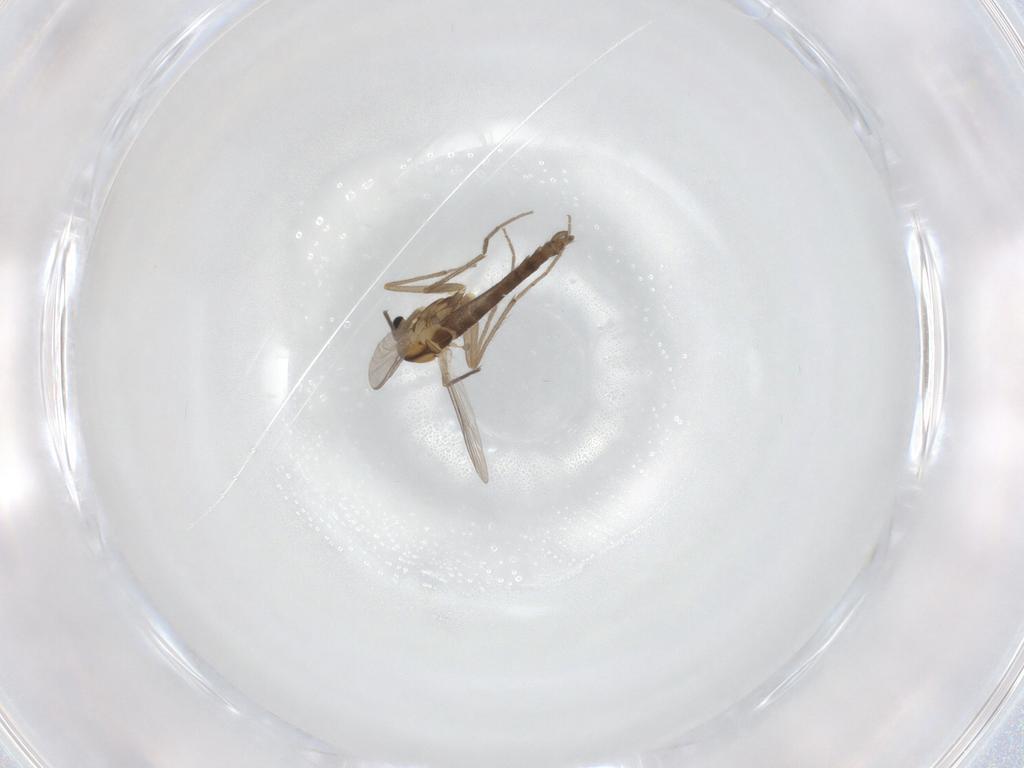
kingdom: Animalia
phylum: Arthropoda
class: Insecta
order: Diptera
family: Chironomidae
